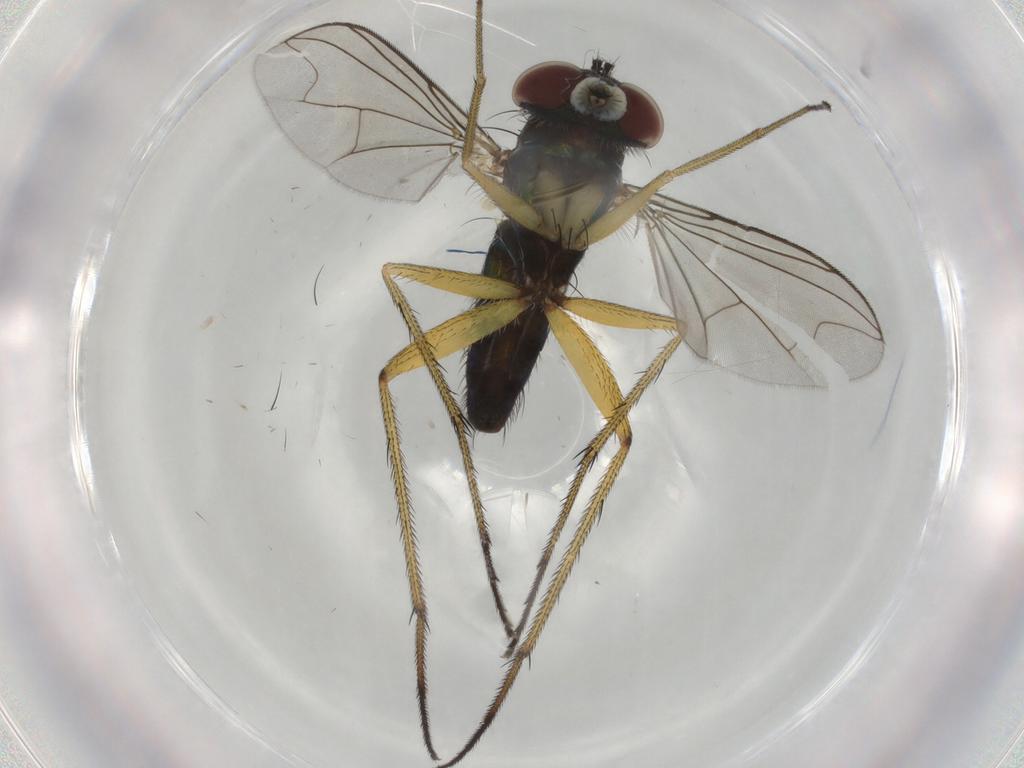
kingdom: Animalia
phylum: Arthropoda
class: Insecta
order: Diptera
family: Dolichopodidae
